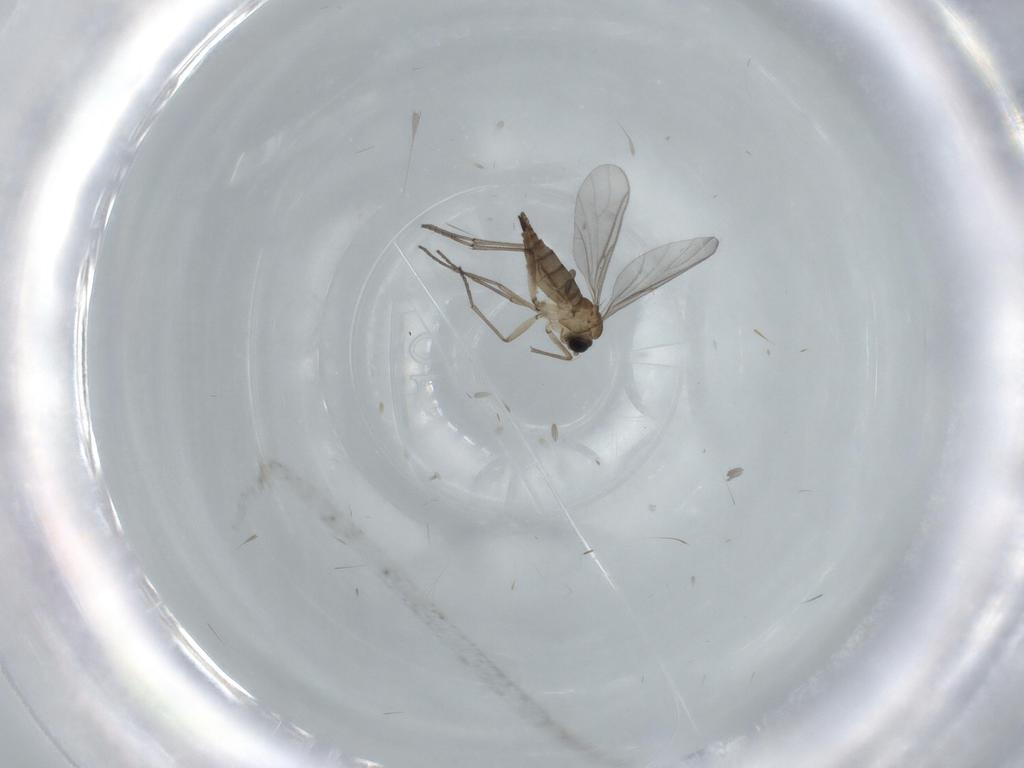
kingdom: Animalia
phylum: Arthropoda
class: Insecta
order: Diptera
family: Sciaridae
